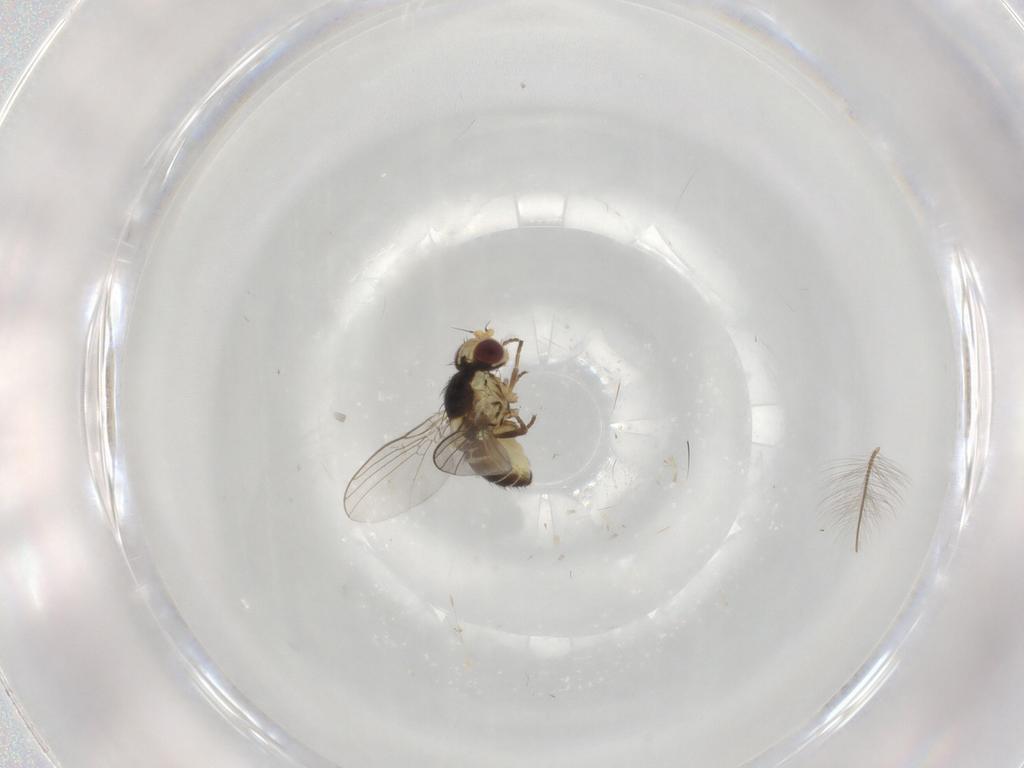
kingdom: Animalia
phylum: Arthropoda
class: Insecta
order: Diptera
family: Agromyzidae
